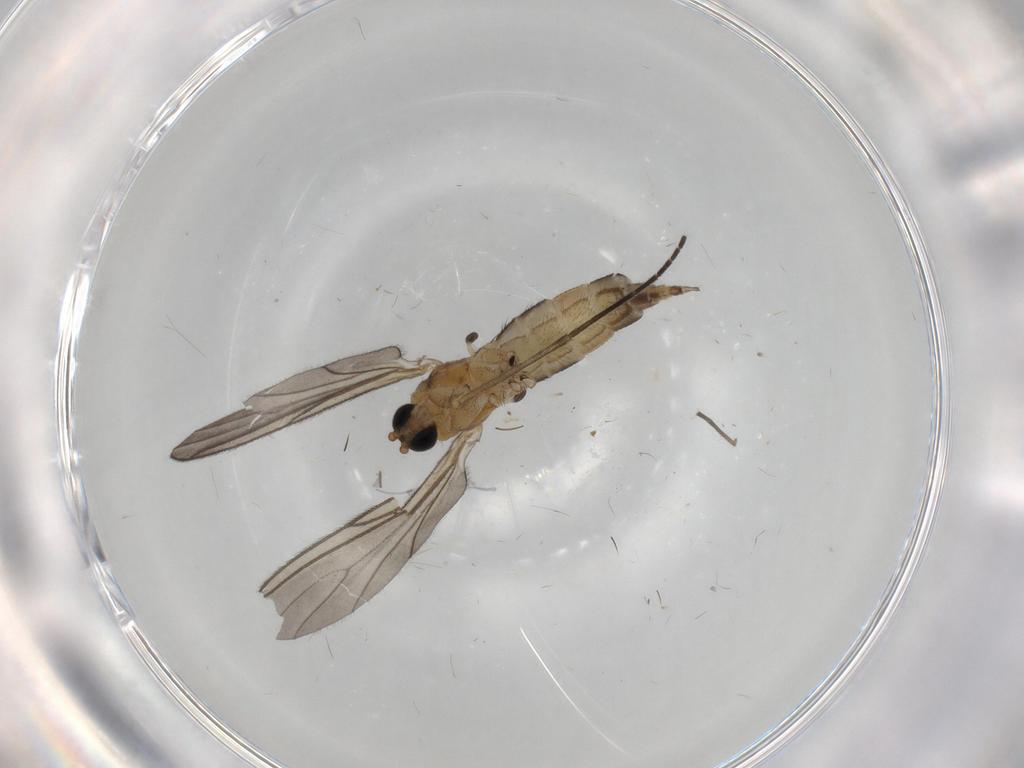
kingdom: Animalia
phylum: Arthropoda
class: Insecta
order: Diptera
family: Sciaridae
